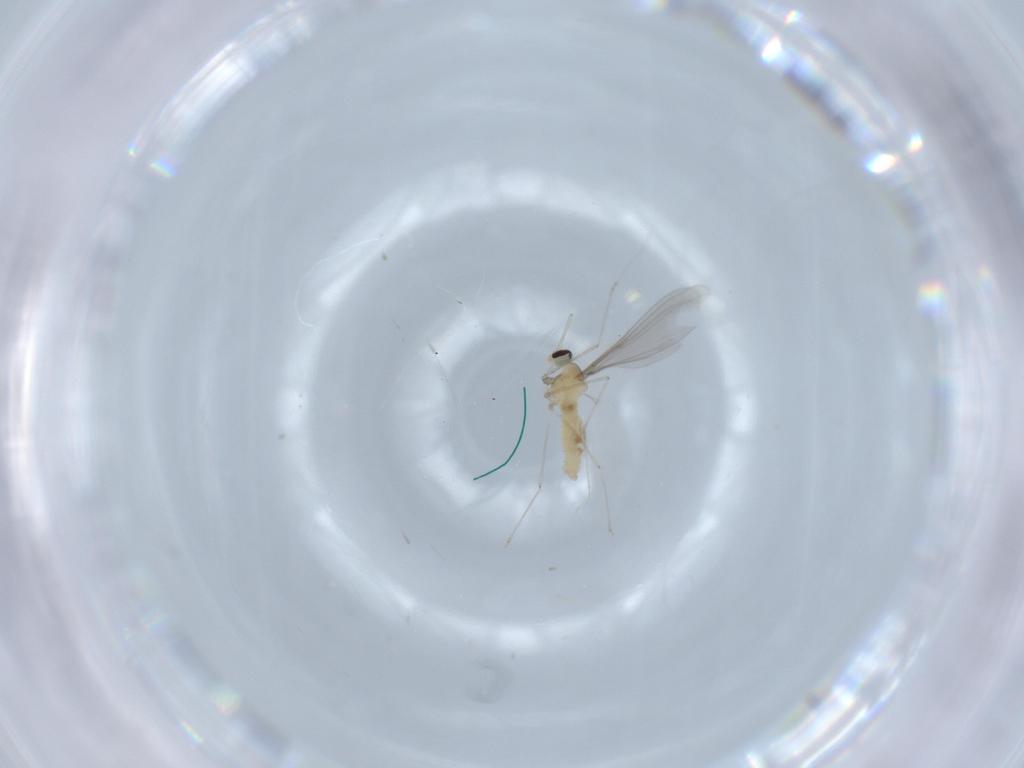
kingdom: Animalia
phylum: Arthropoda
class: Insecta
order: Diptera
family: Cecidomyiidae
